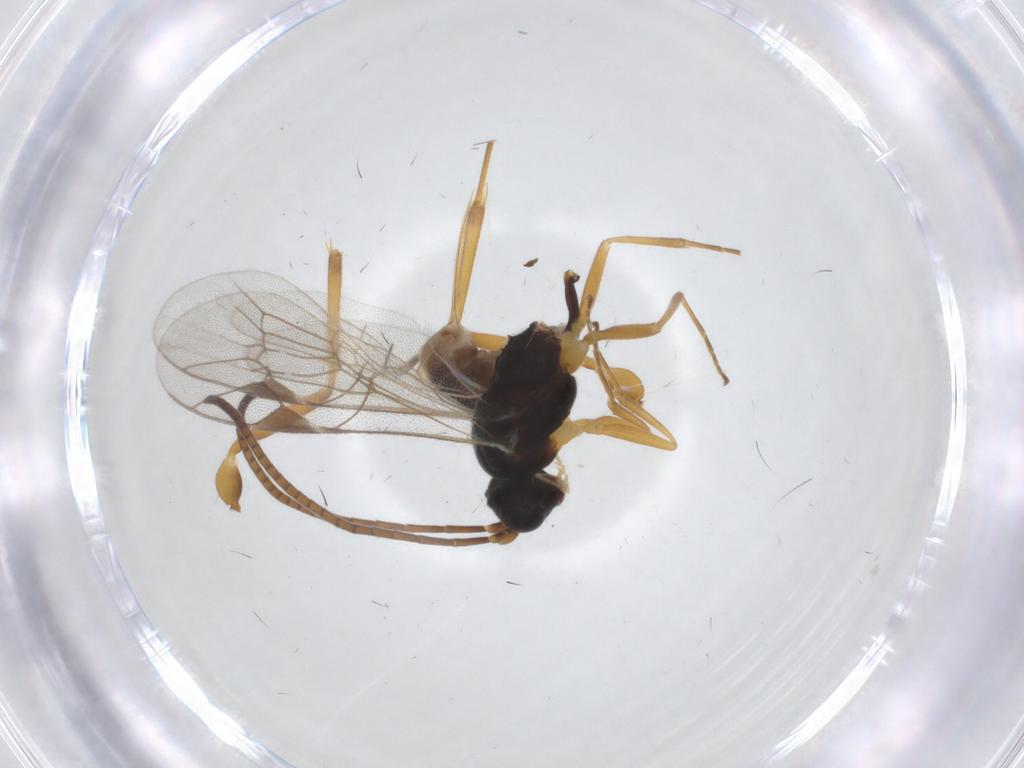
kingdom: Animalia
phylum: Arthropoda
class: Insecta
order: Hymenoptera
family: Ichneumonidae
